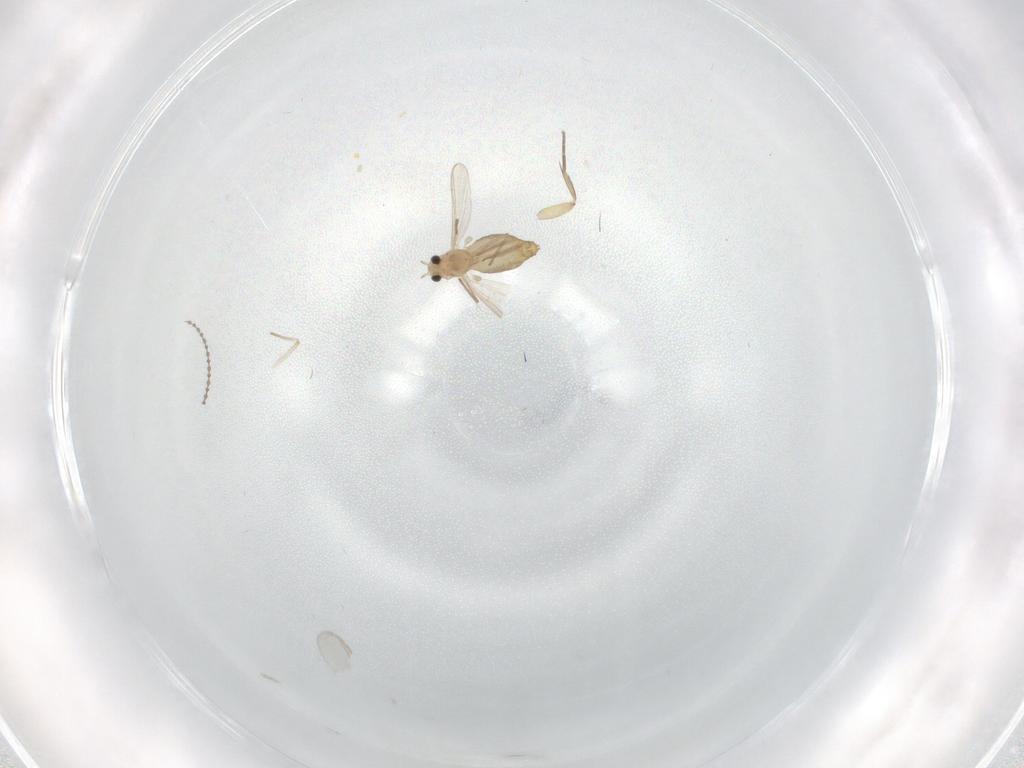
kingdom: Animalia
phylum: Arthropoda
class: Insecta
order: Diptera
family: Chironomidae
